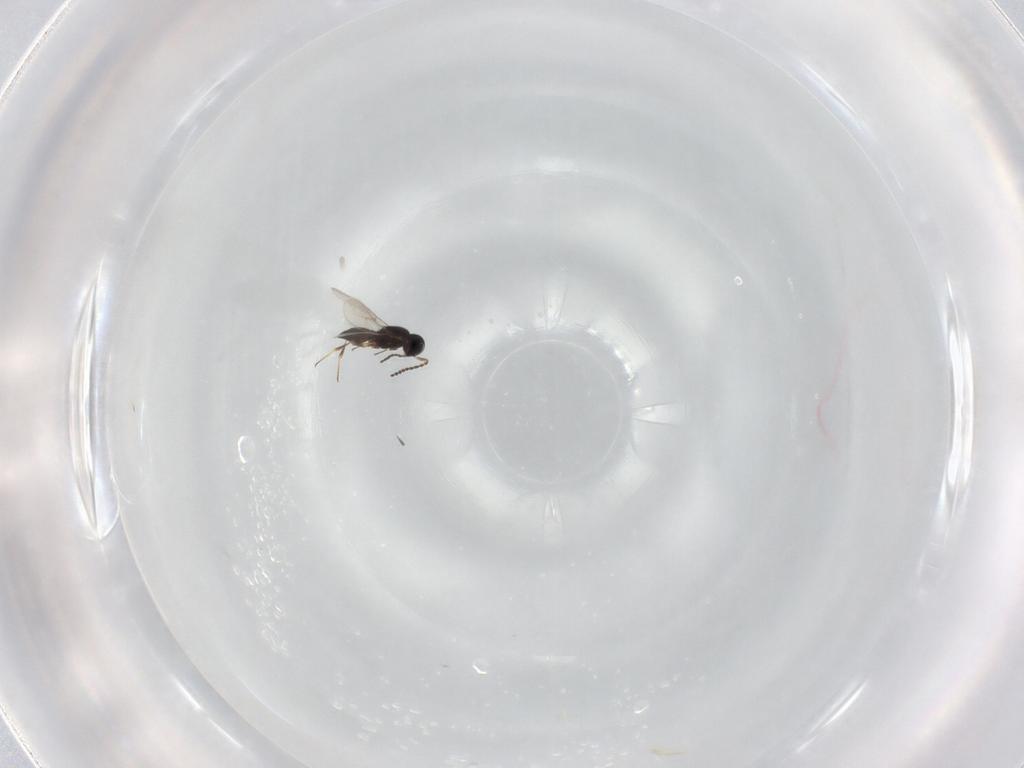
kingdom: Animalia
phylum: Arthropoda
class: Insecta
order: Hymenoptera
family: Scelionidae
